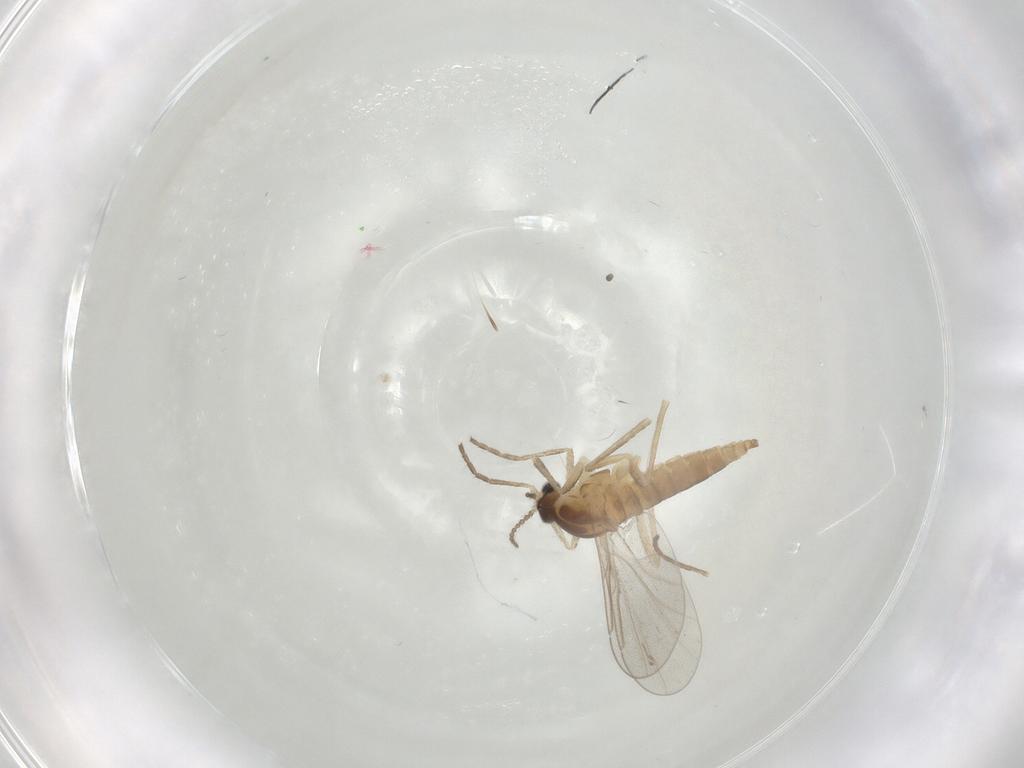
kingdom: Animalia
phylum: Arthropoda
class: Insecta
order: Diptera
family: Cecidomyiidae
